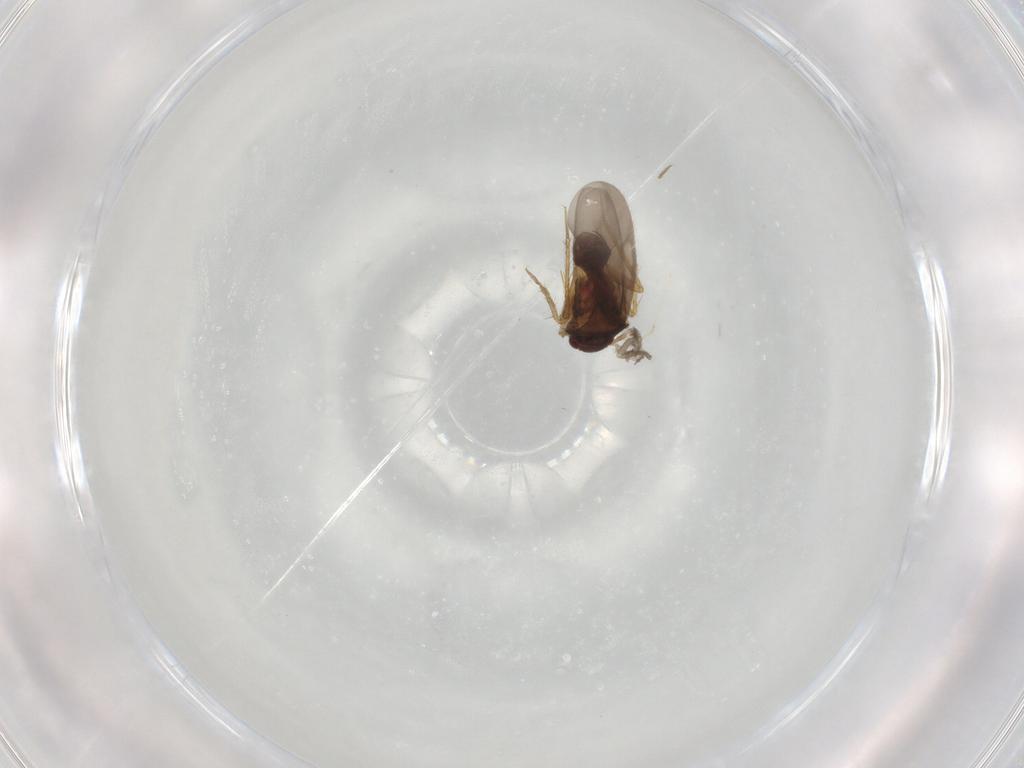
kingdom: Animalia
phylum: Arthropoda
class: Insecta
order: Hemiptera
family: Ceratocombidae
